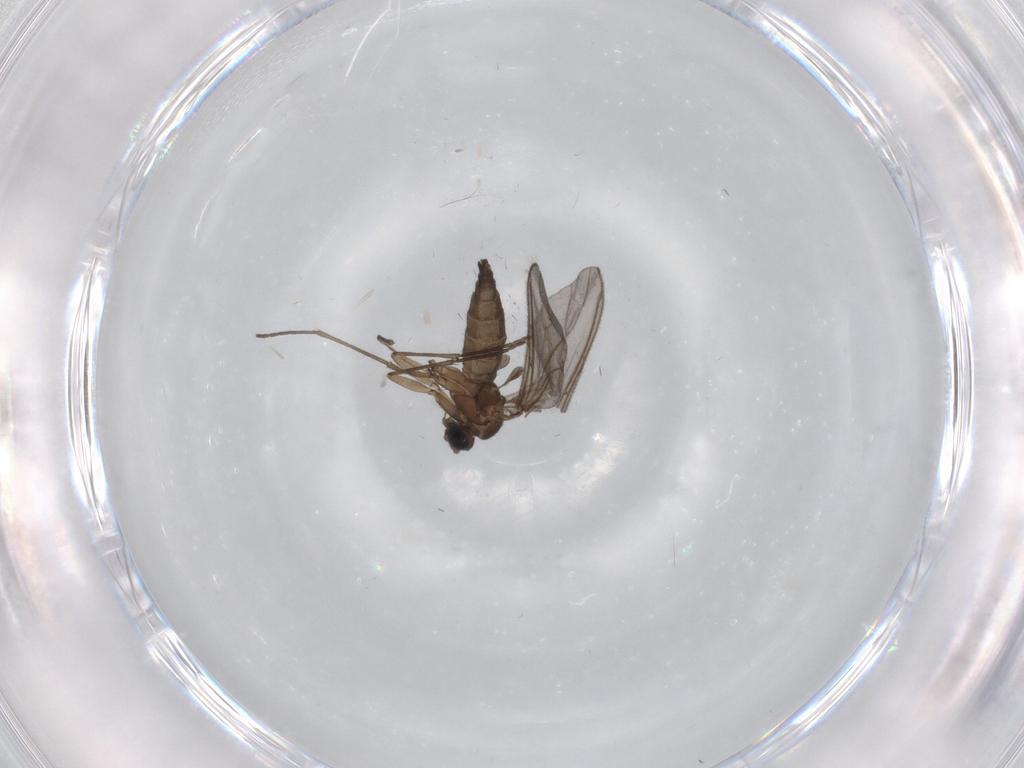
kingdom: Animalia
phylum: Arthropoda
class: Insecta
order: Diptera
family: Sciaridae
